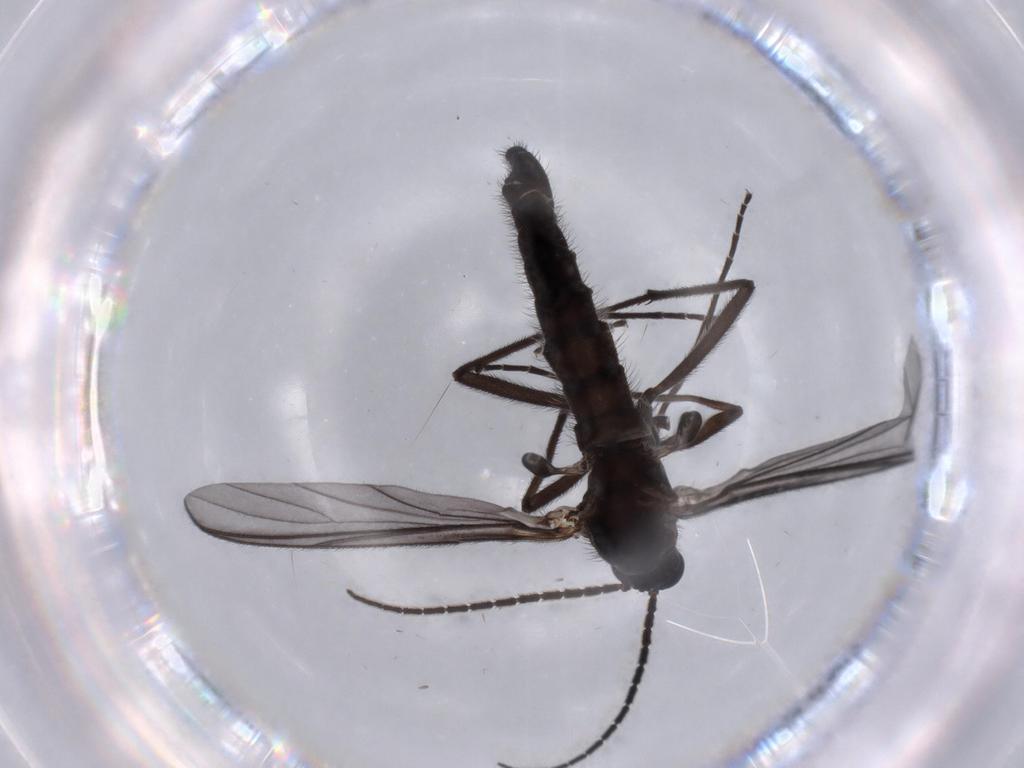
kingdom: Animalia
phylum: Arthropoda
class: Insecta
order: Diptera
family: Ceratopogonidae
